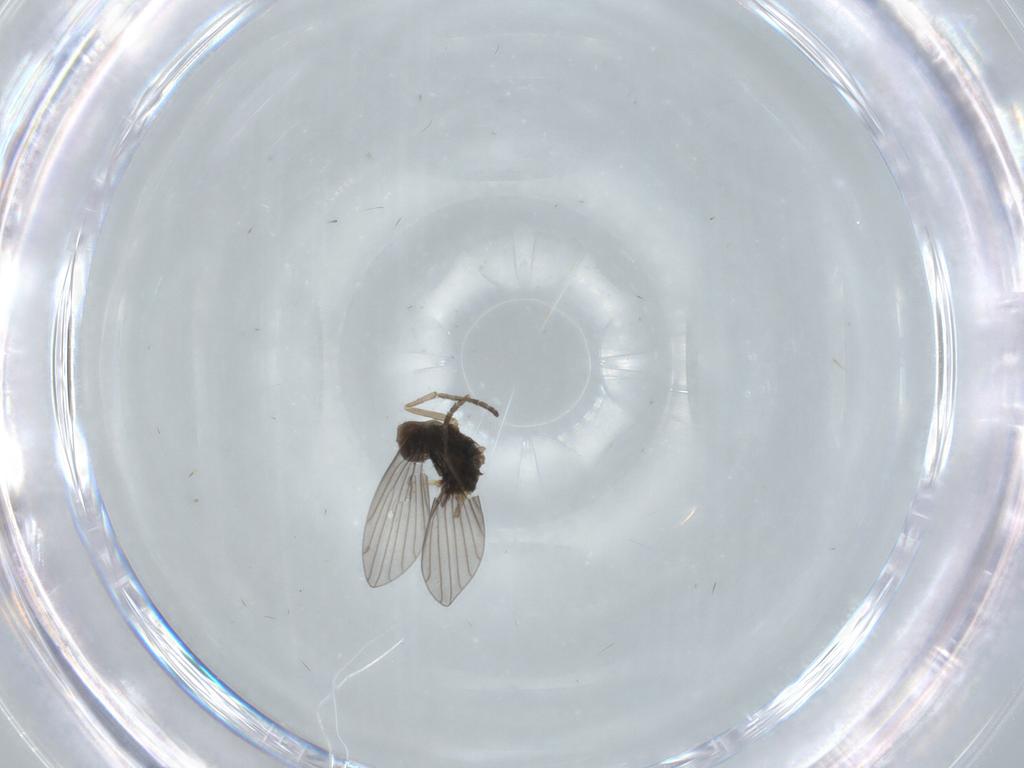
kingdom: Animalia
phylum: Arthropoda
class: Insecta
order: Diptera
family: Psychodidae
